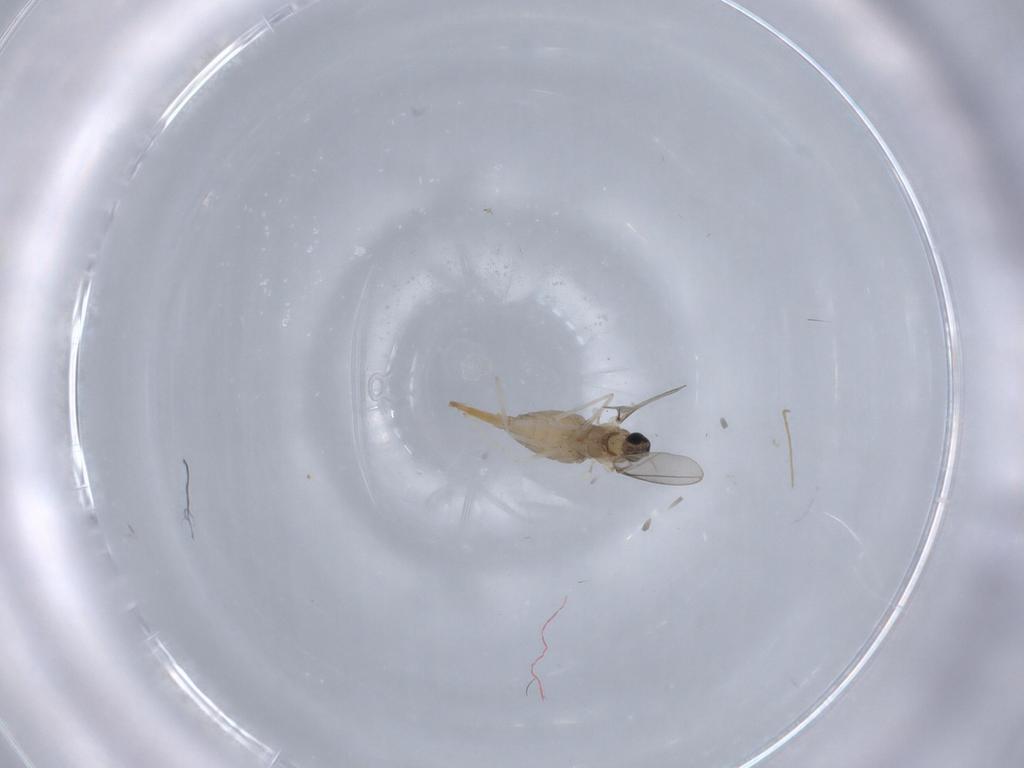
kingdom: Animalia
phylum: Arthropoda
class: Insecta
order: Diptera
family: Cecidomyiidae
